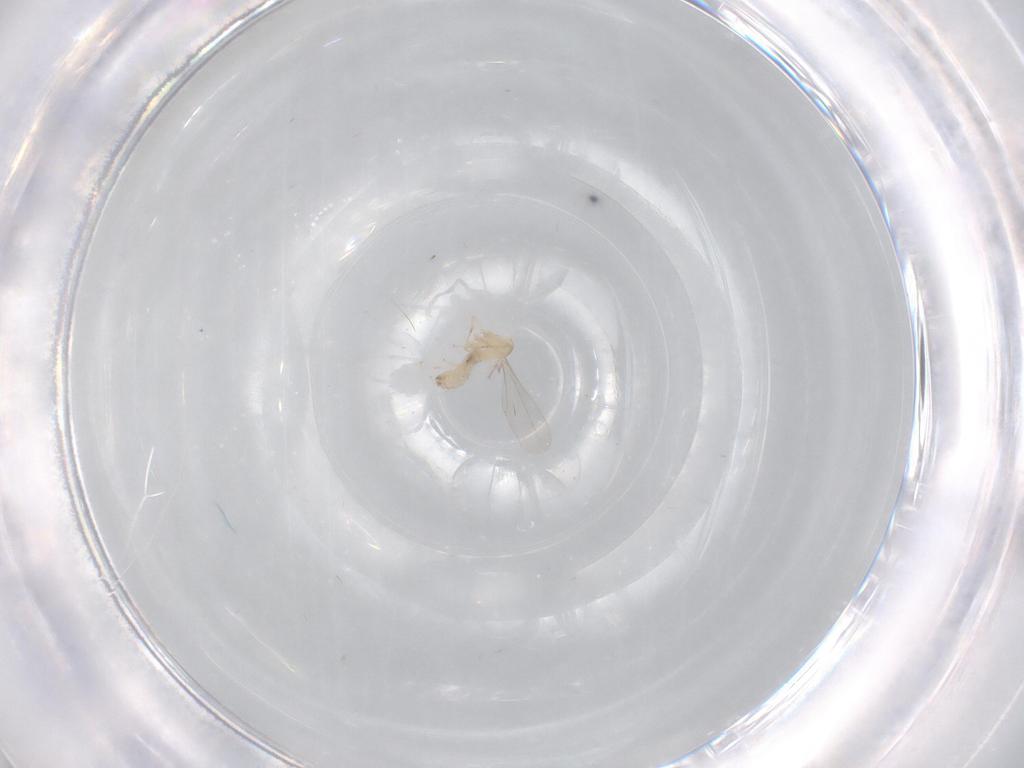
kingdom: Animalia
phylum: Arthropoda
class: Insecta
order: Diptera
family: Cecidomyiidae
